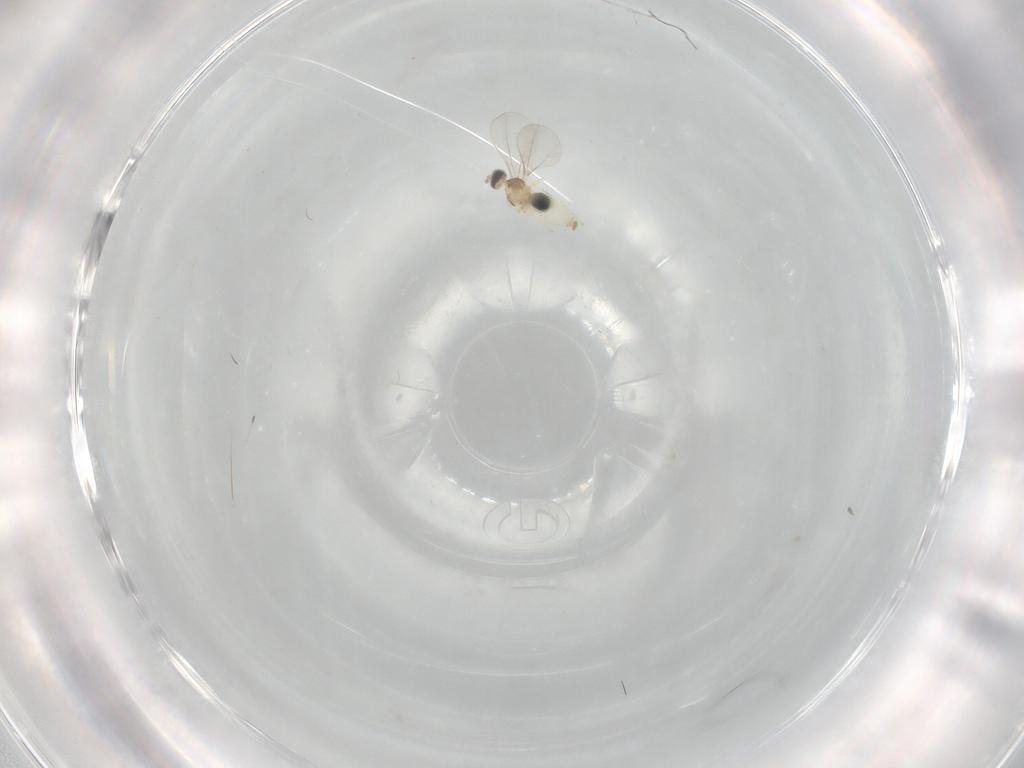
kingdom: Animalia
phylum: Arthropoda
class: Insecta
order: Diptera
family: Cecidomyiidae
